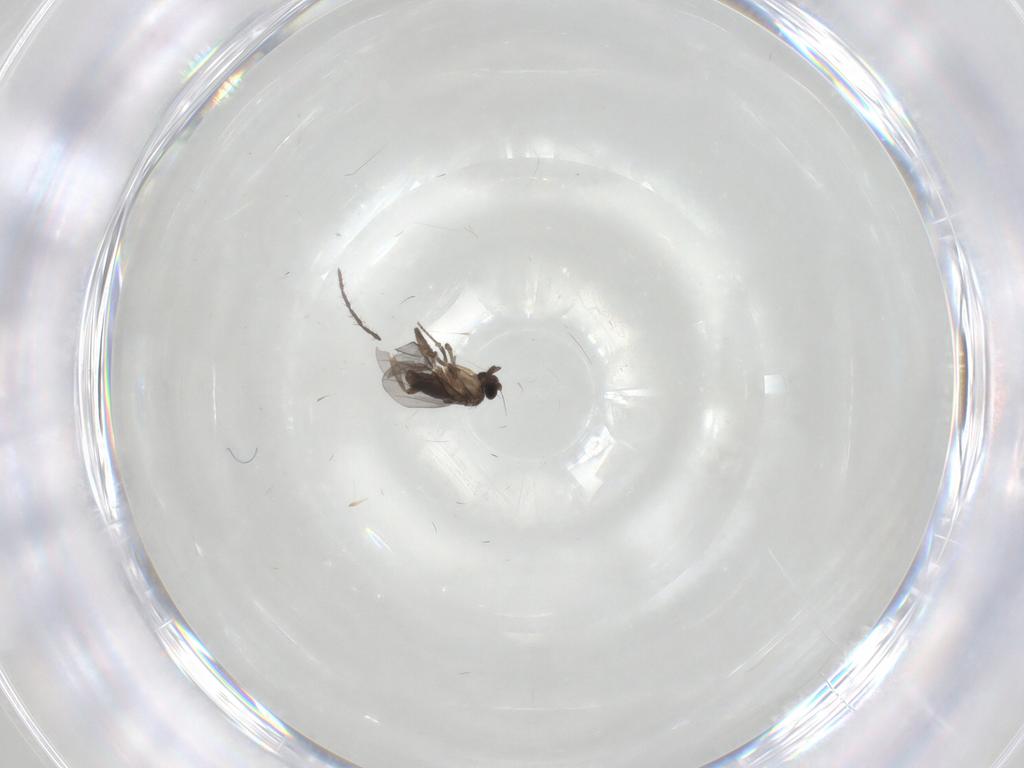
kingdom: Animalia
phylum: Arthropoda
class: Insecta
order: Diptera
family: Limoniidae
